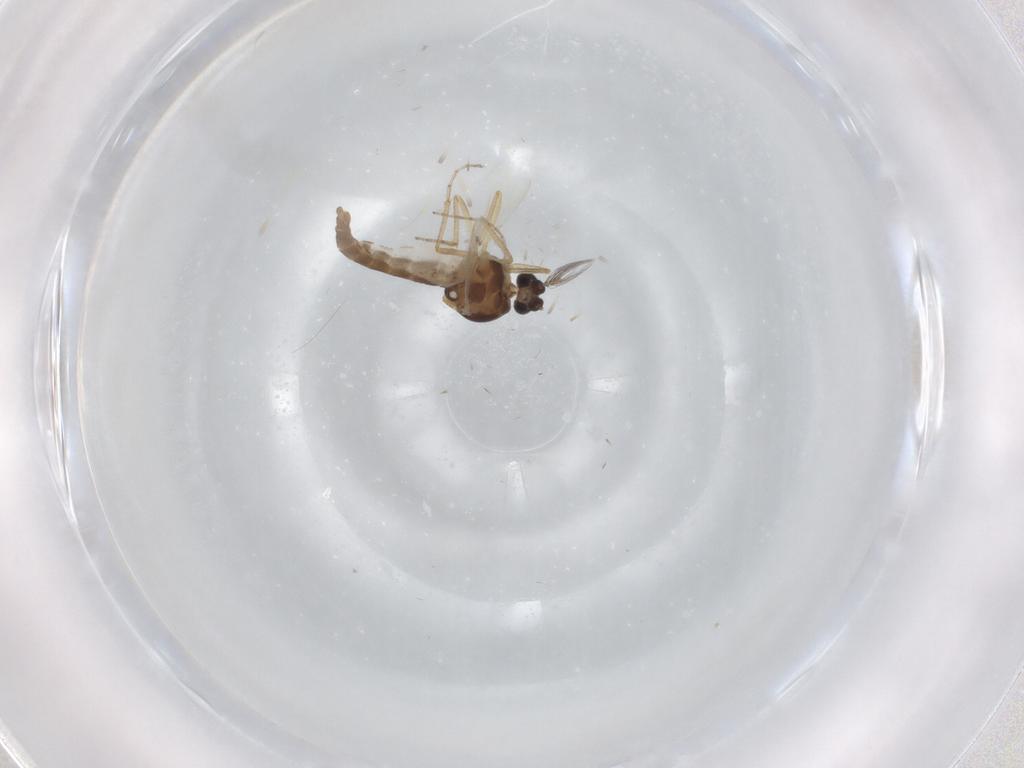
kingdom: Animalia
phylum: Arthropoda
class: Insecta
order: Diptera
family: Ceratopogonidae
